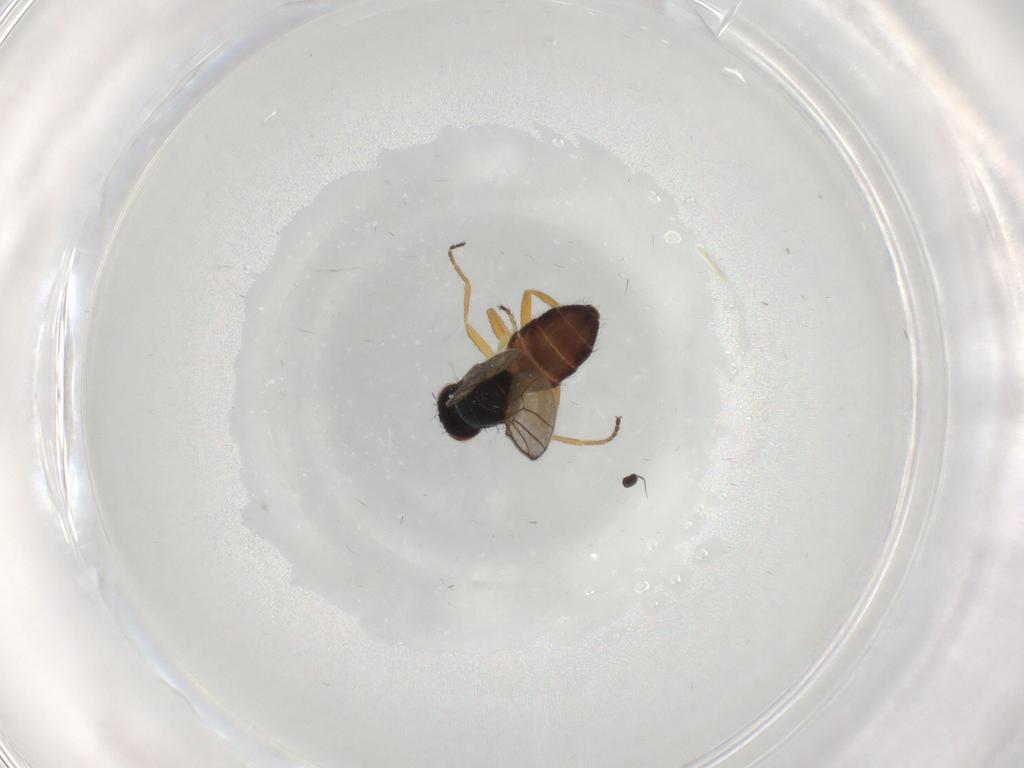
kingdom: Animalia
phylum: Arthropoda
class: Insecta
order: Diptera
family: Chloropidae
